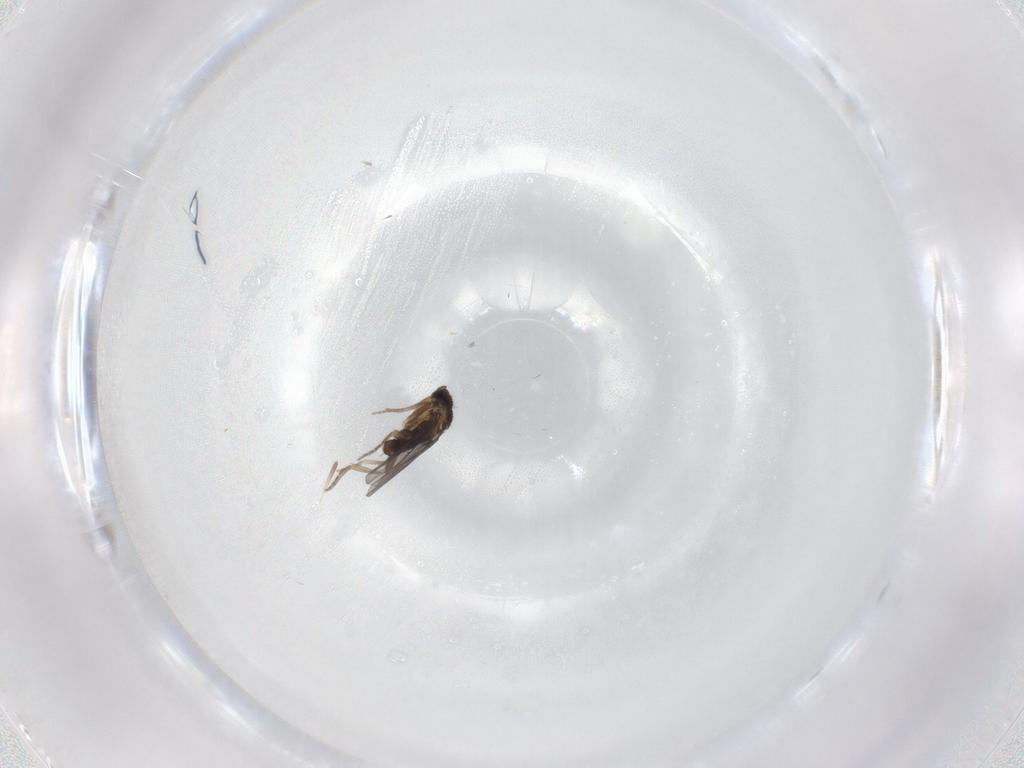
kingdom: Animalia
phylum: Arthropoda
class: Insecta
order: Diptera
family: Cecidomyiidae
